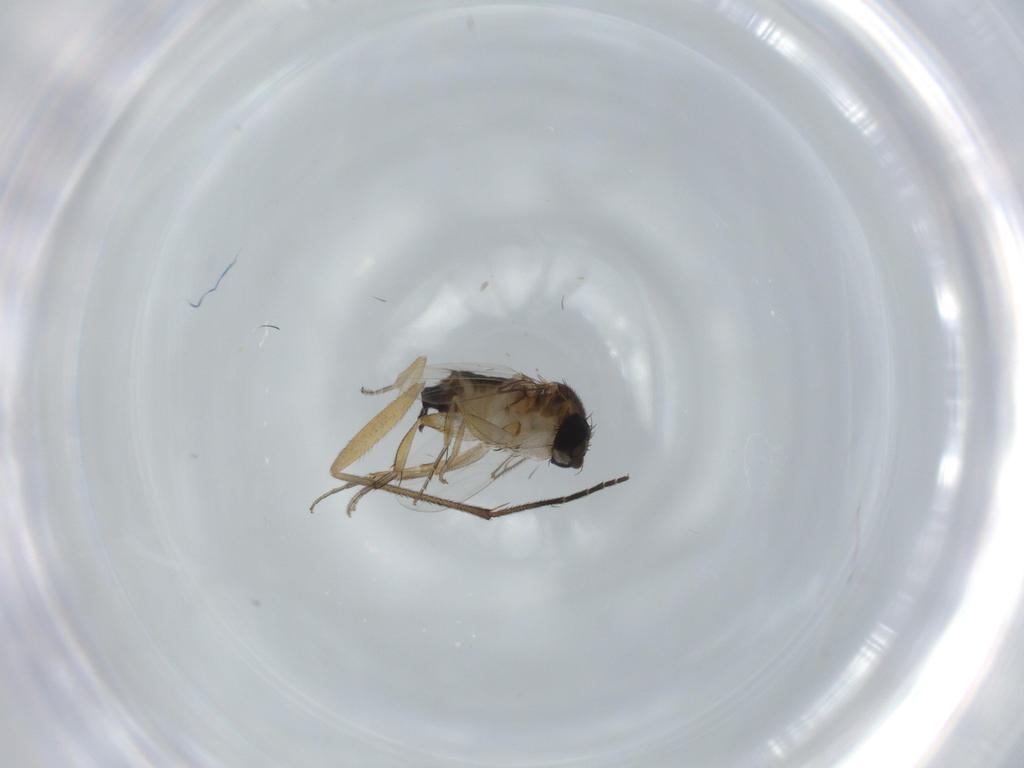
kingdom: Animalia
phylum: Arthropoda
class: Insecta
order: Diptera
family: Phoridae
